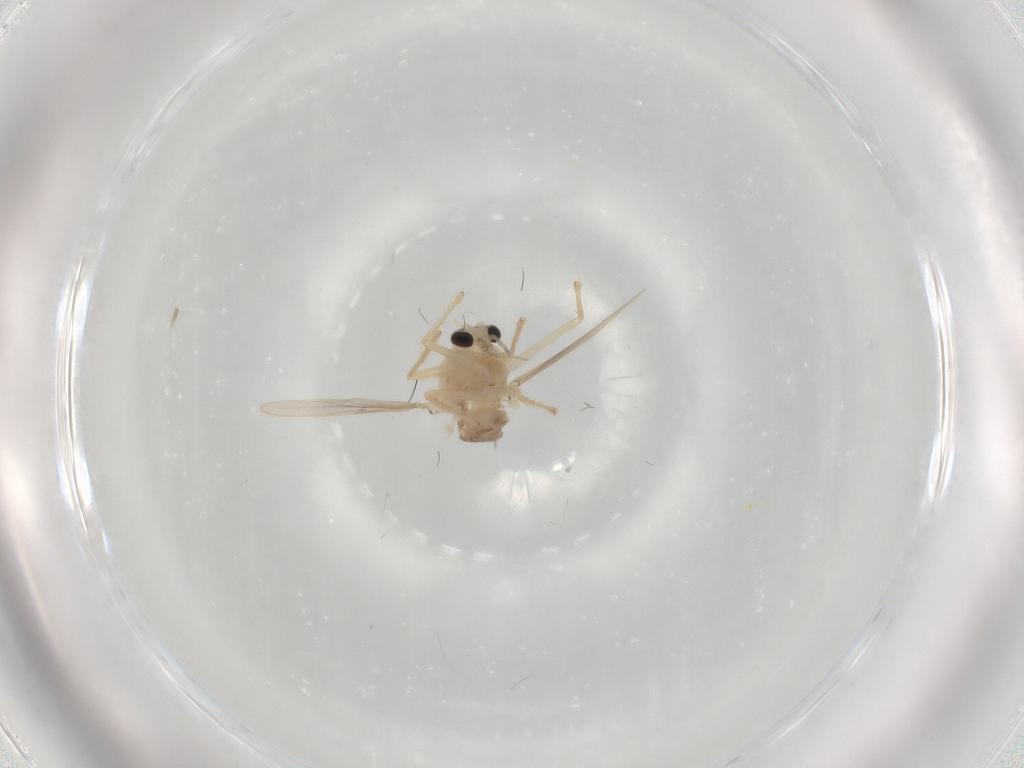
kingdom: Animalia
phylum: Arthropoda
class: Insecta
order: Diptera
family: Chironomidae
